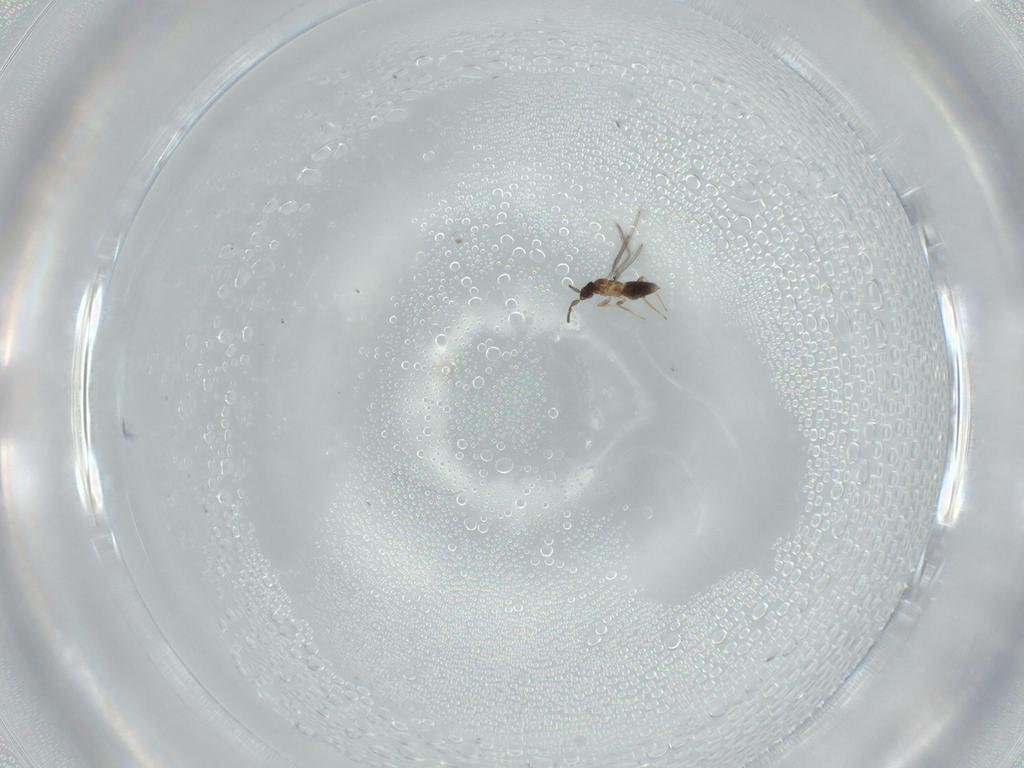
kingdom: Animalia
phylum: Arthropoda
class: Insecta
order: Hymenoptera
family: Mymaridae
